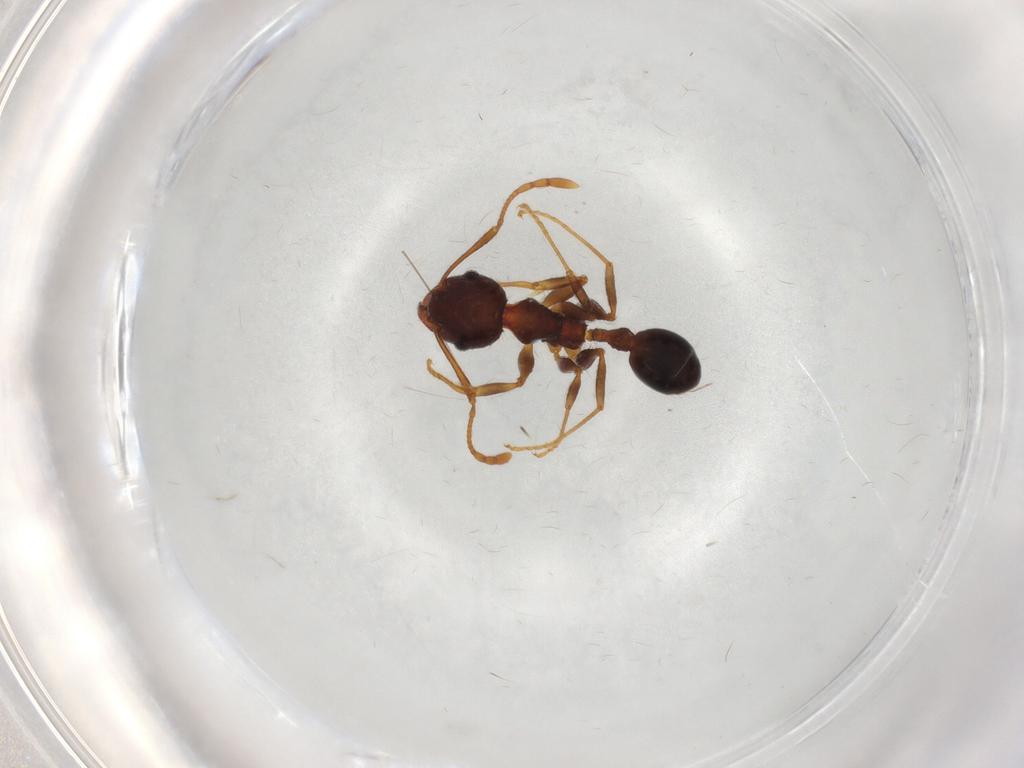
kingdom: Animalia
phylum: Arthropoda
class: Insecta
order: Hymenoptera
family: Formicidae
